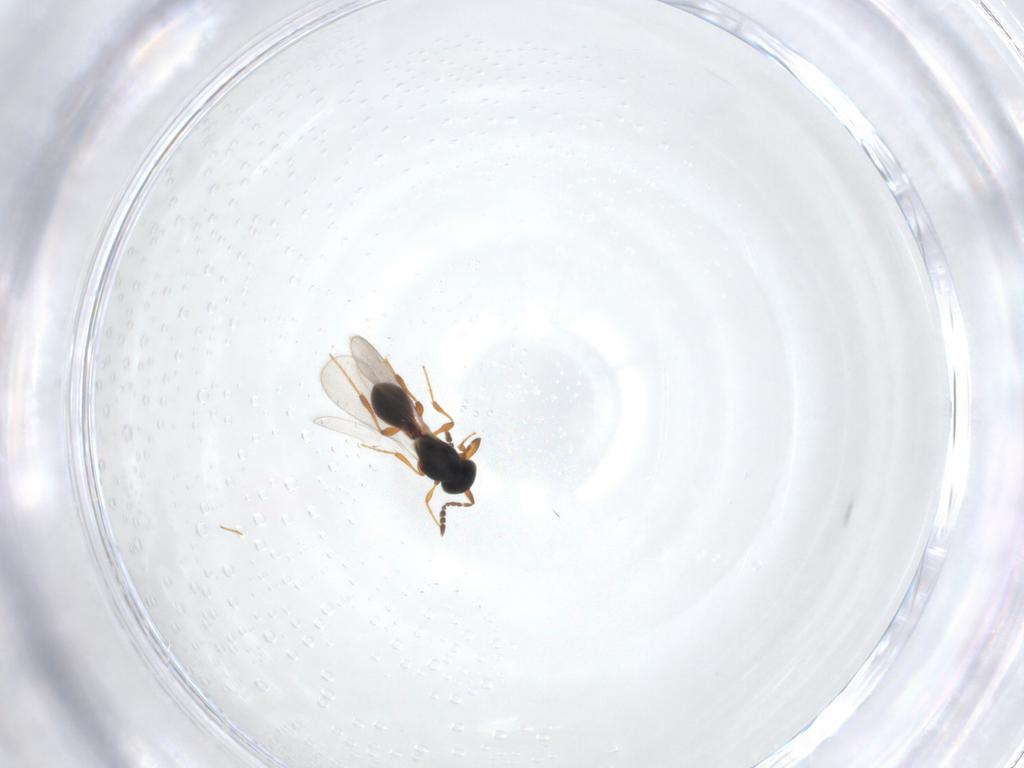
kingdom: Animalia
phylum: Arthropoda
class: Insecta
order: Hymenoptera
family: Platygastridae
